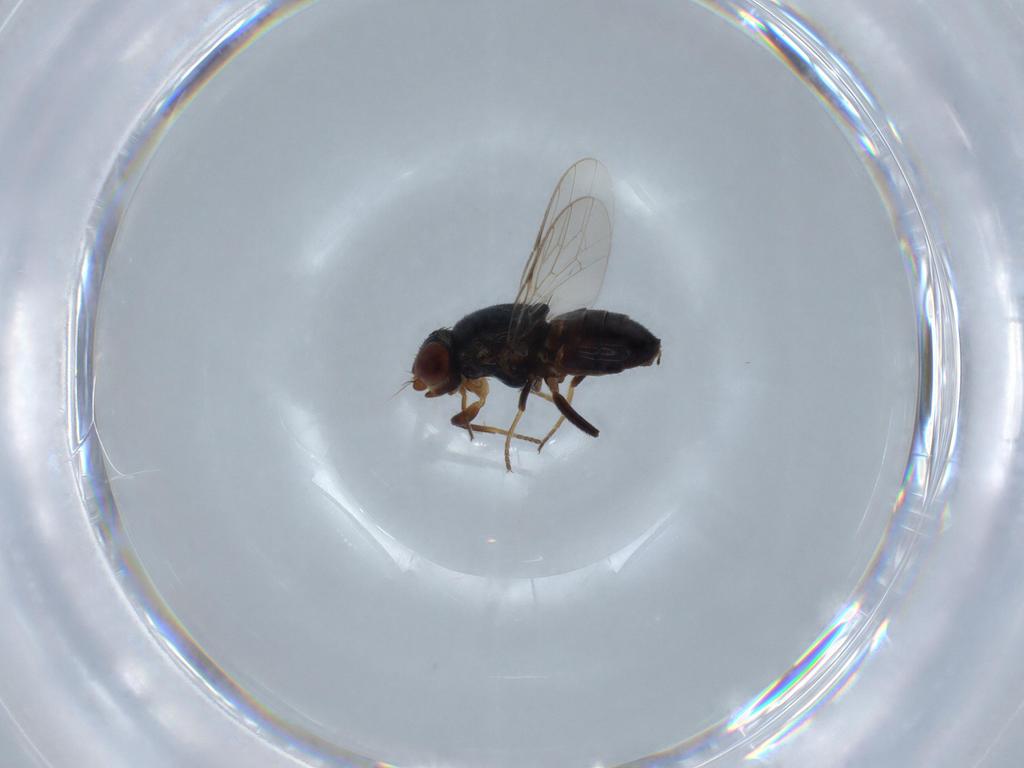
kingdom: Animalia
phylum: Arthropoda
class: Insecta
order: Diptera
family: Chloropidae
